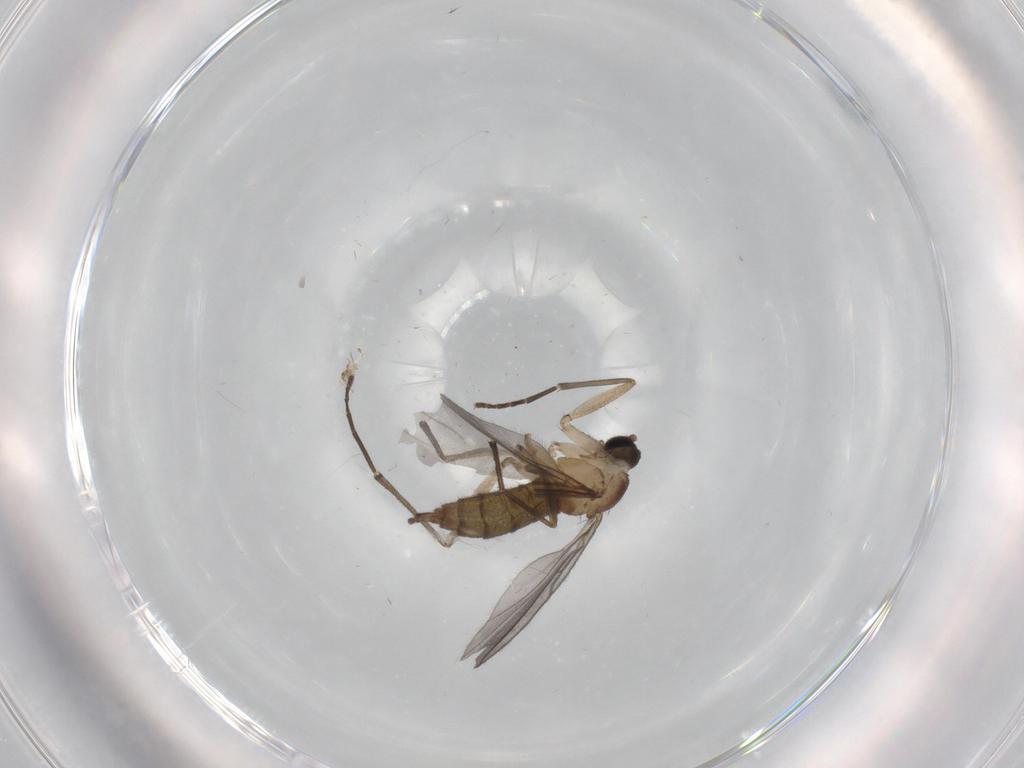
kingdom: Animalia
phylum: Arthropoda
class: Insecta
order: Diptera
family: Sciaridae
